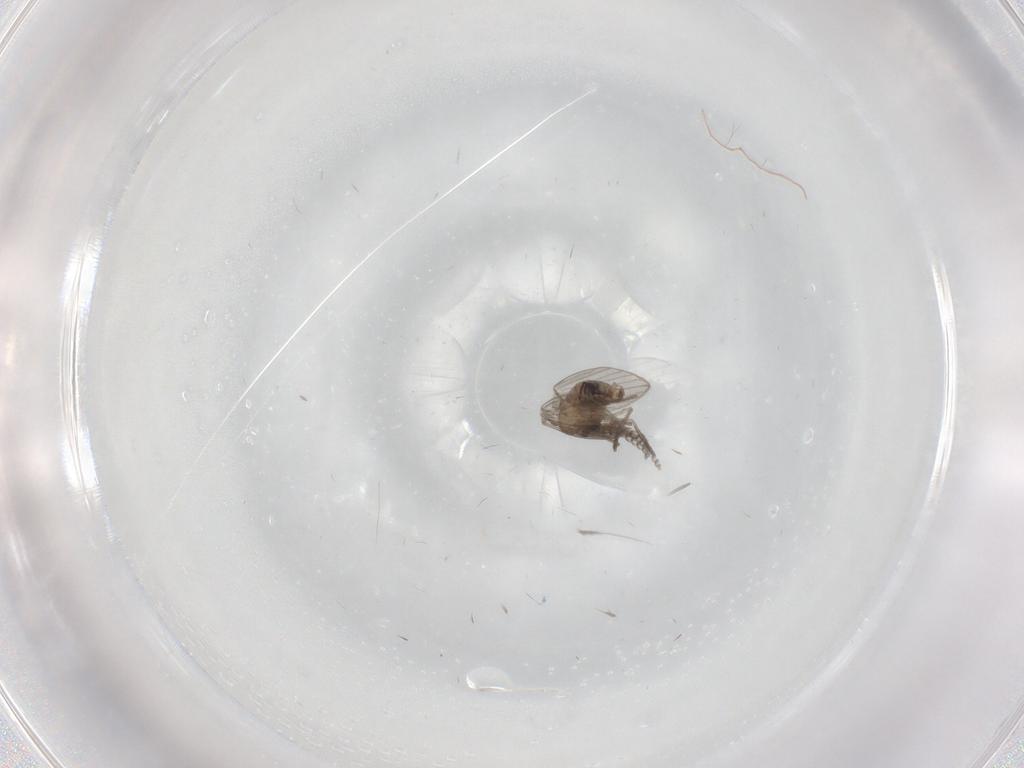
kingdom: Animalia
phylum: Arthropoda
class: Insecta
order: Diptera
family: Psychodidae
